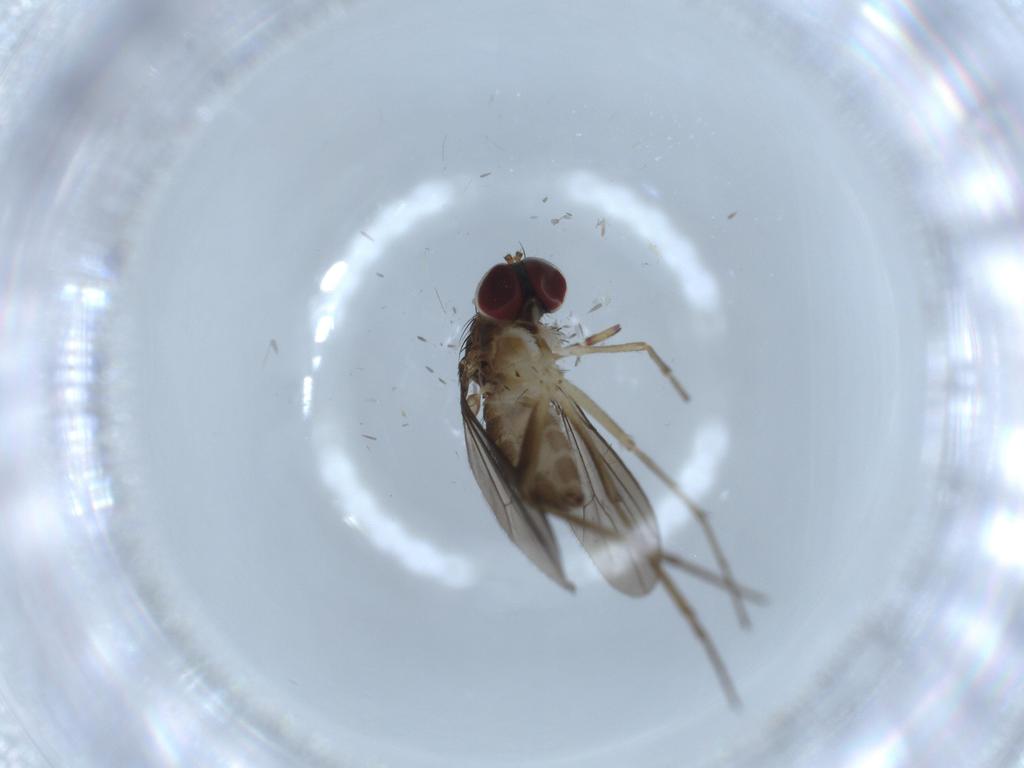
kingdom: Animalia
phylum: Arthropoda
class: Insecta
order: Diptera
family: Dolichopodidae
